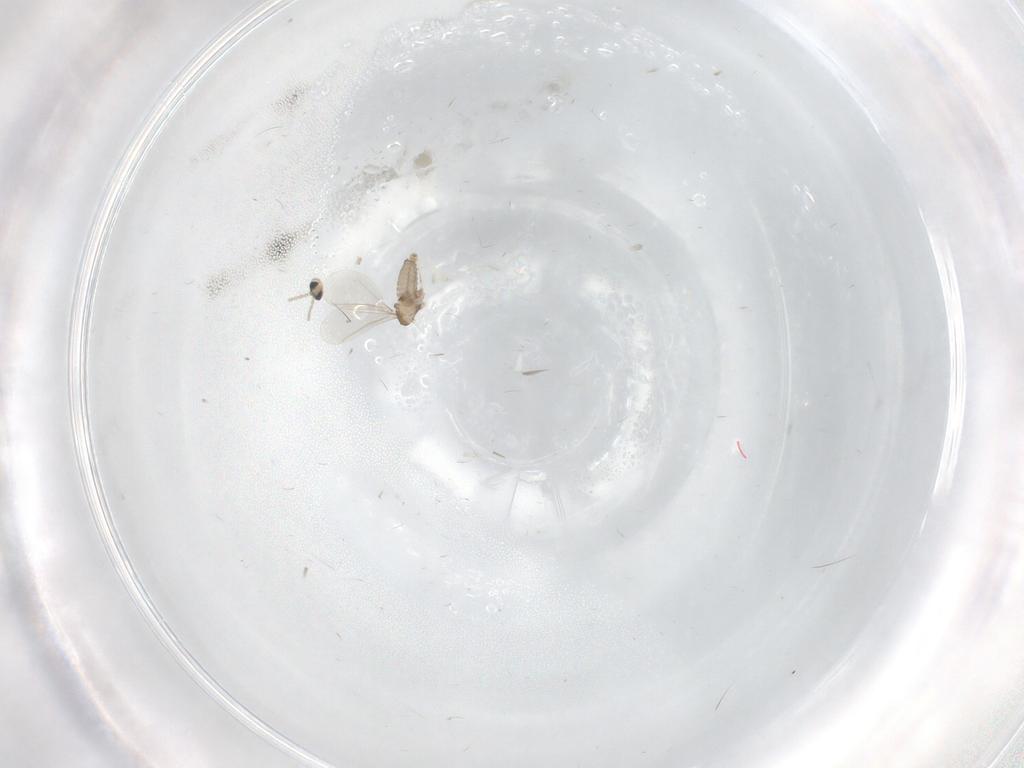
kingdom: Animalia
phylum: Arthropoda
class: Insecta
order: Diptera
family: Cecidomyiidae
